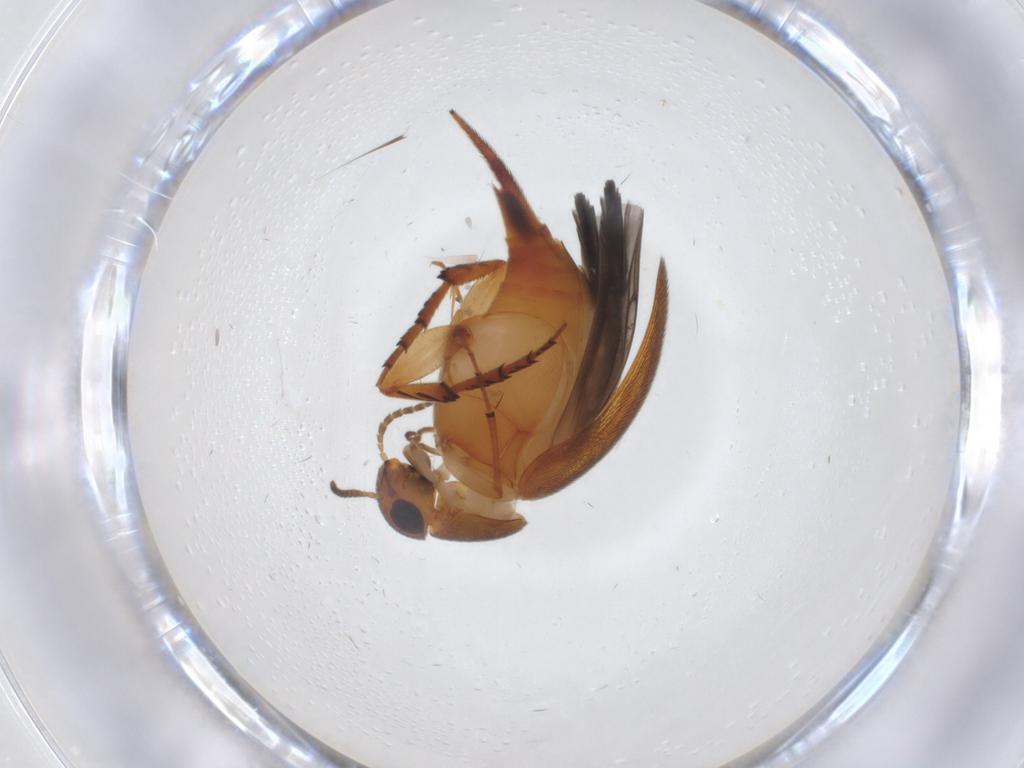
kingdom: Animalia
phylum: Arthropoda
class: Insecta
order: Coleoptera
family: Mordellidae
